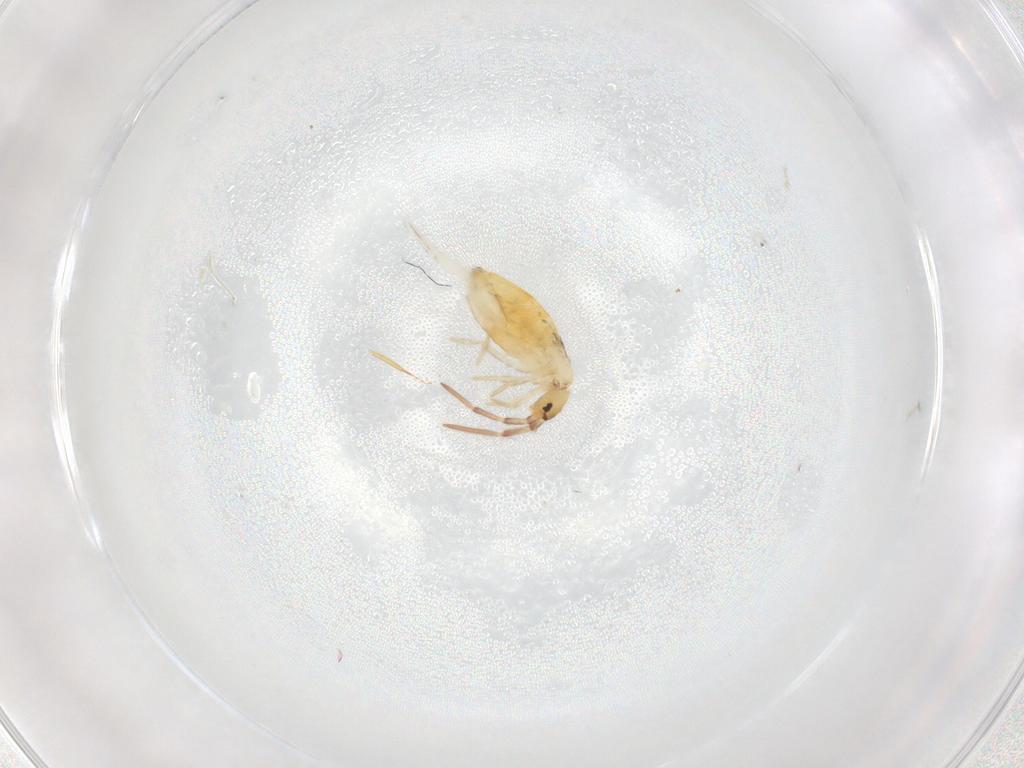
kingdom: Animalia
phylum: Arthropoda
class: Collembola
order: Entomobryomorpha
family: Entomobryidae
